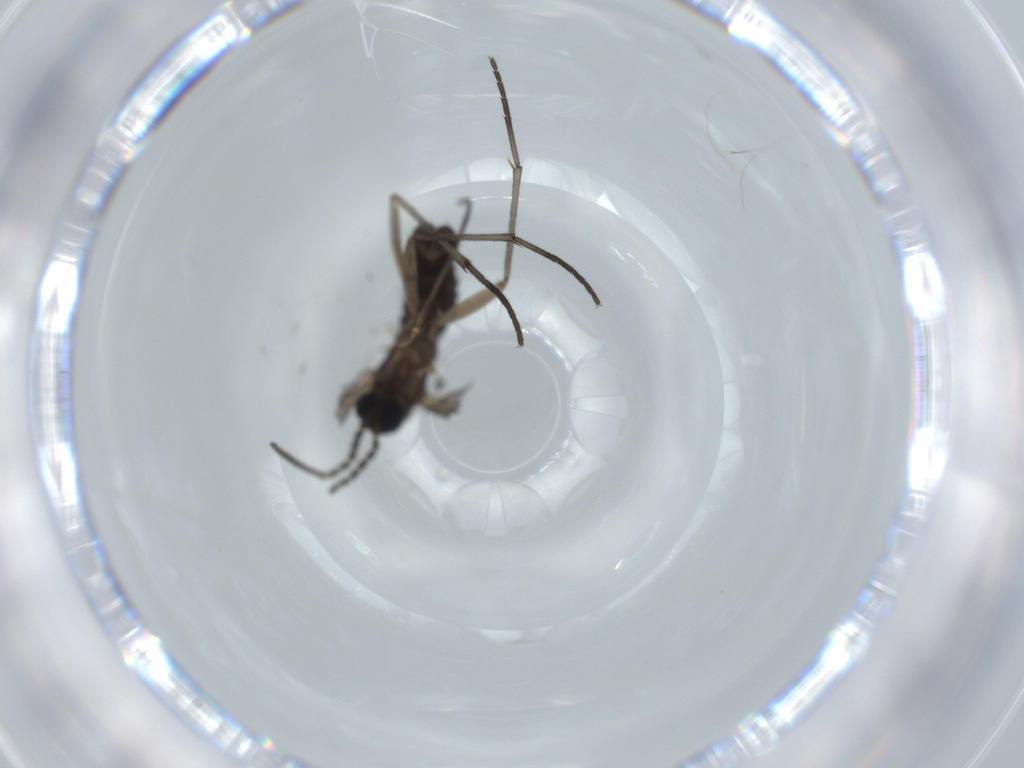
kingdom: Animalia
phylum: Arthropoda
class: Insecta
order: Diptera
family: Sciaridae
